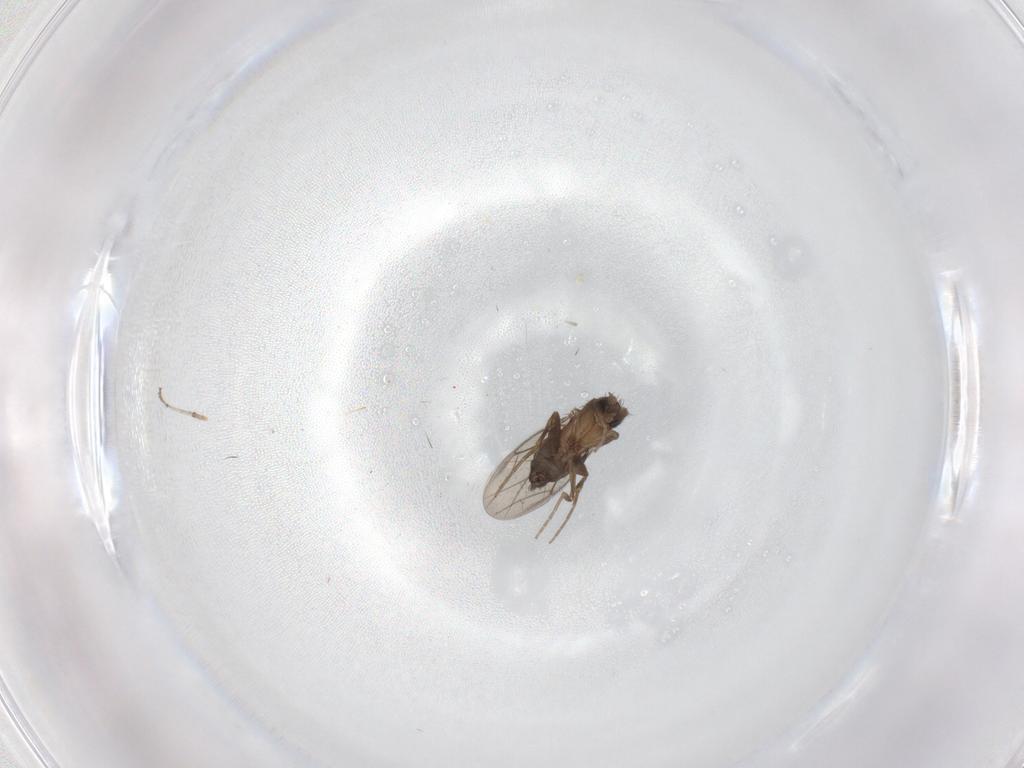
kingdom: Animalia
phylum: Arthropoda
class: Insecta
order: Diptera
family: Phoridae
